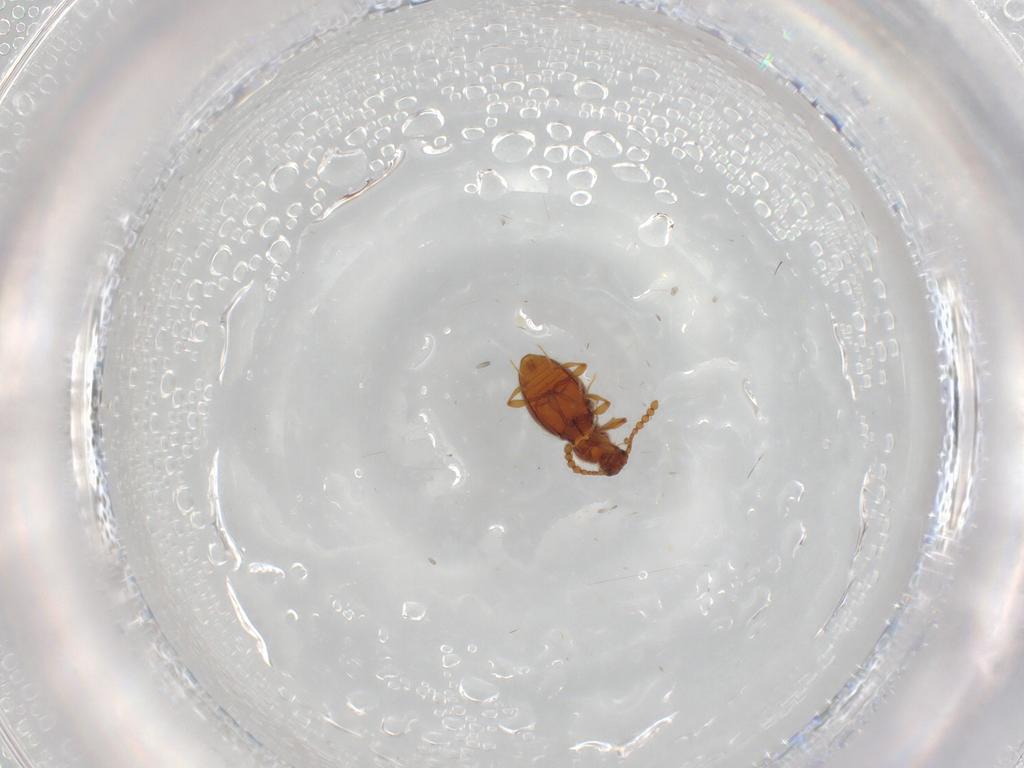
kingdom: Animalia
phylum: Arthropoda
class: Insecta
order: Coleoptera
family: Staphylinidae
